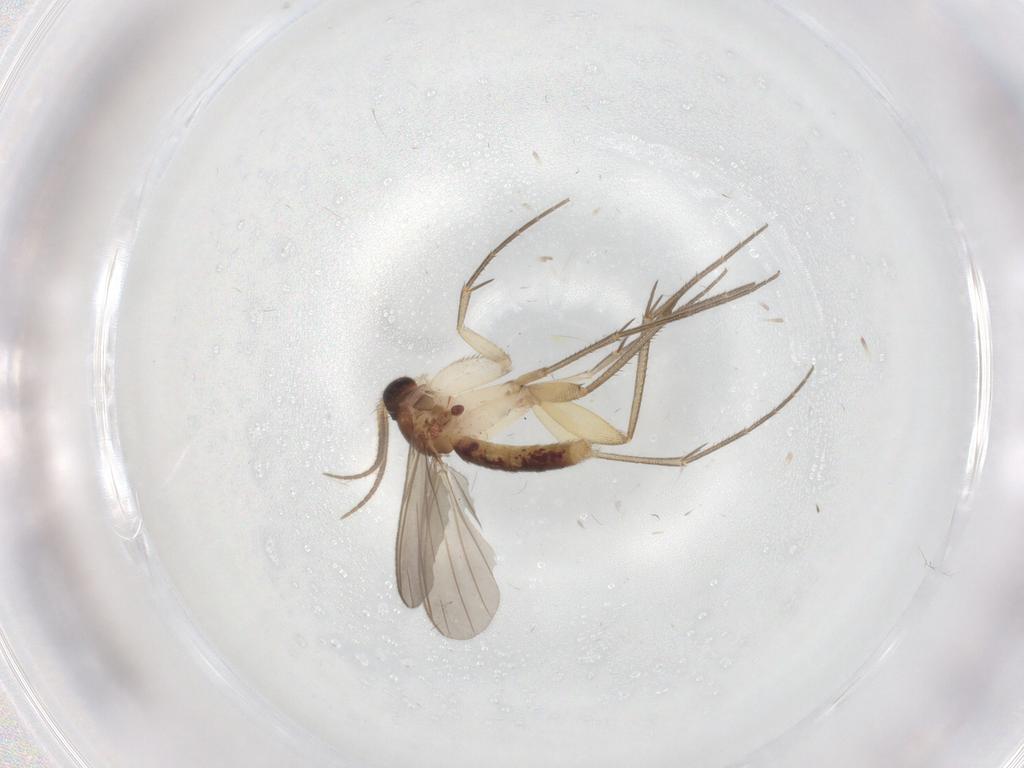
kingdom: Animalia
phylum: Arthropoda
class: Insecta
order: Diptera
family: Mycetophilidae
